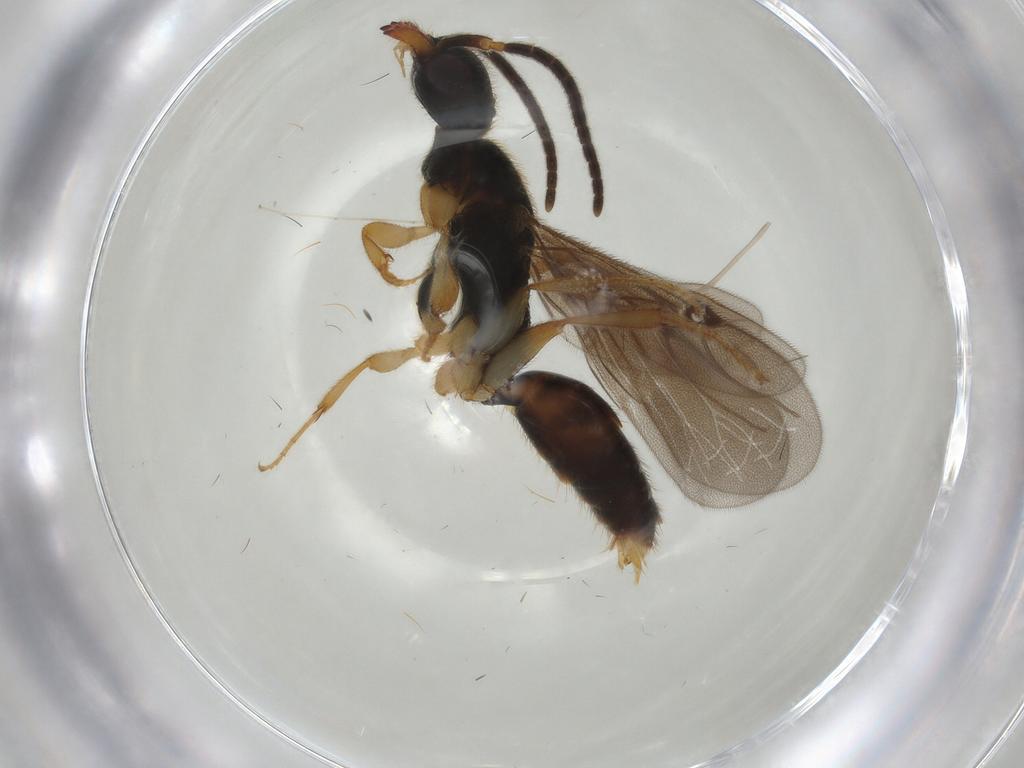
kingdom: Animalia
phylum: Arthropoda
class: Insecta
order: Hymenoptera
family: Bethylidae
